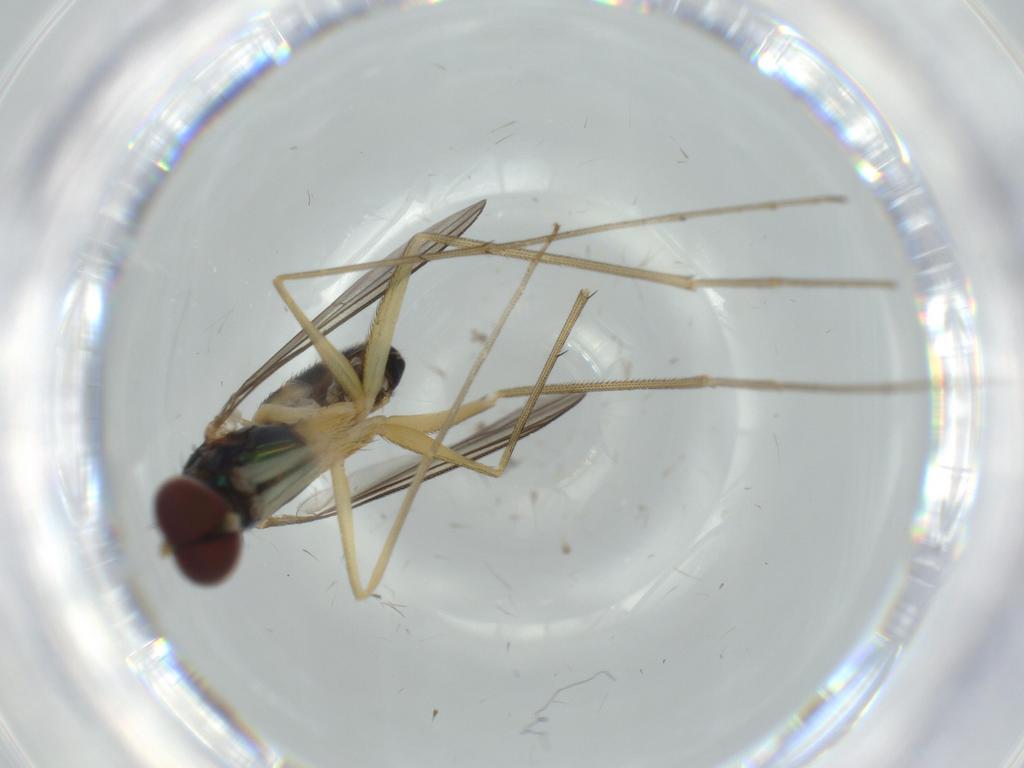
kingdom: Animalia
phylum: Arthropoda
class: Insecta
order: Diptera
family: Dolichopodidae
